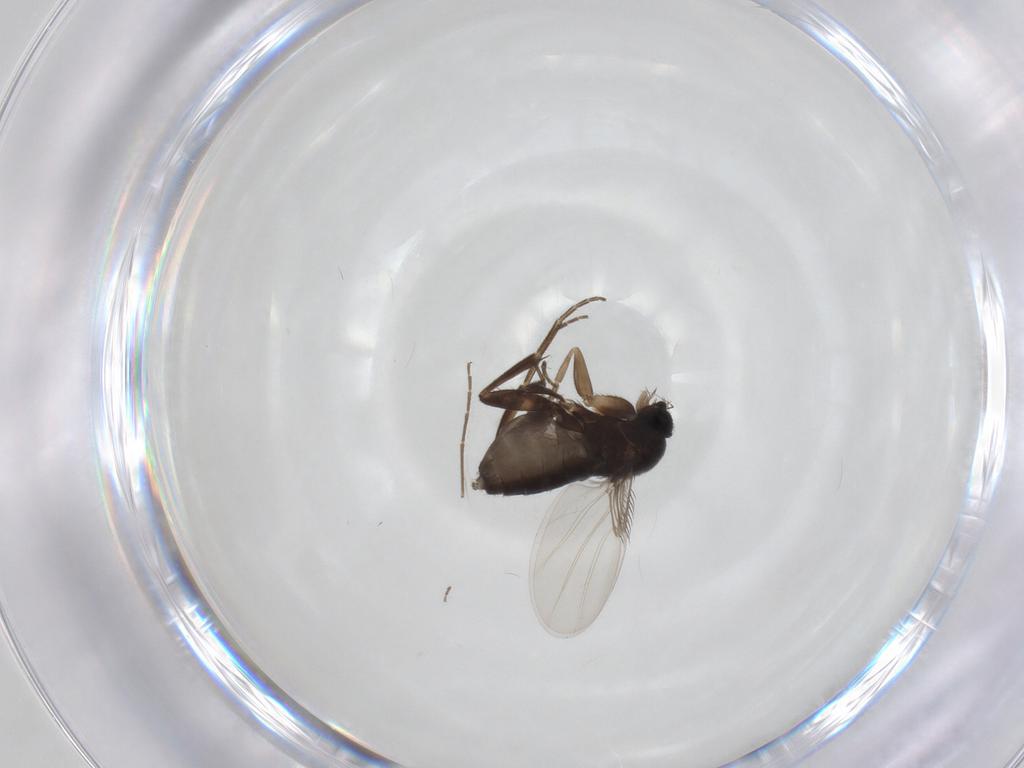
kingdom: Animalia
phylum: Arthropoda
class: Insecta
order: Diptera
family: Phoridae
